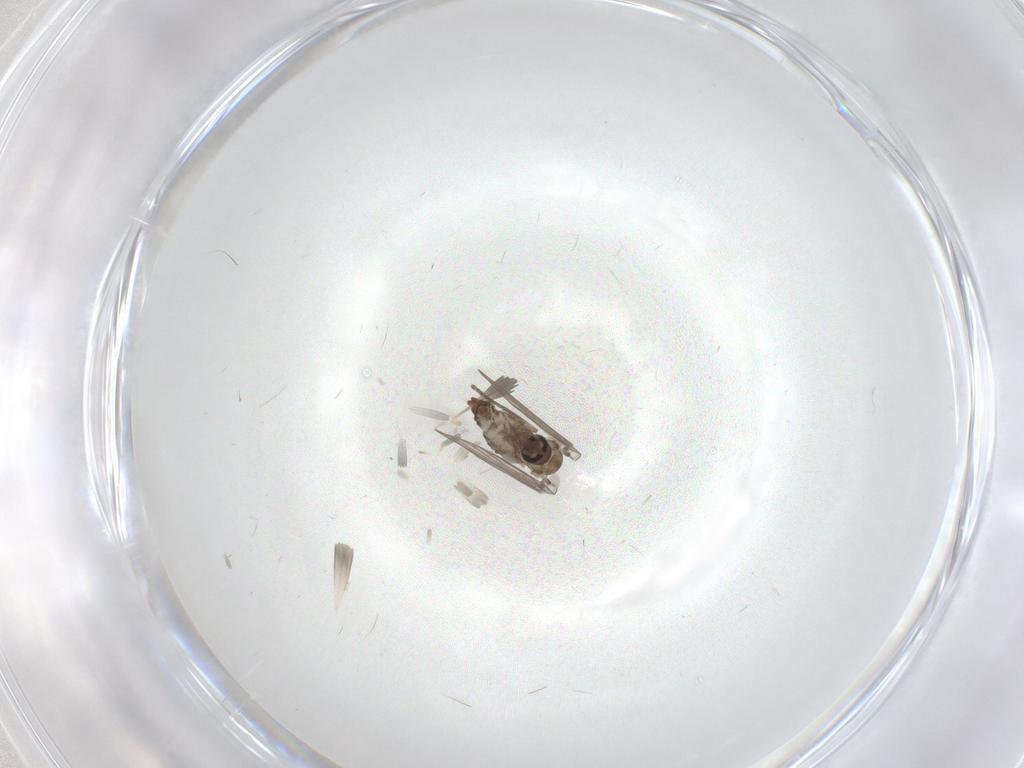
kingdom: Animalia
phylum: Arthropoda
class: Insecta
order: Diptera
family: Psychodidae
